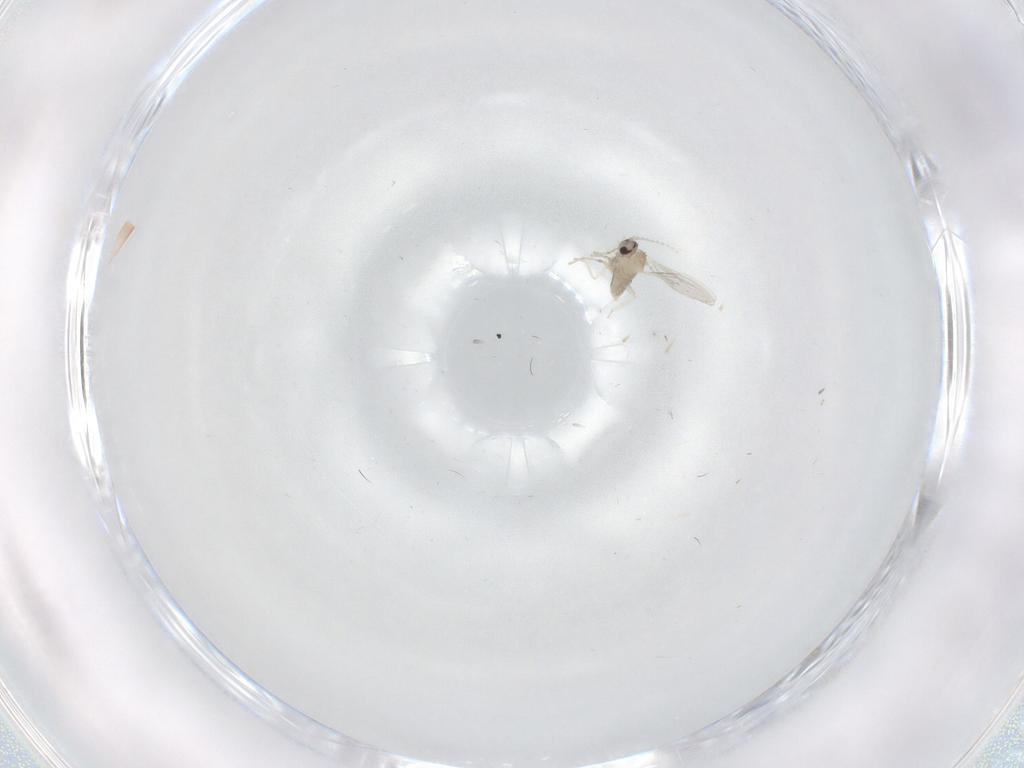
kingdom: Animalia
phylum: Arthropoda
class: Insecta
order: Diptera
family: Cecidomyiidae
